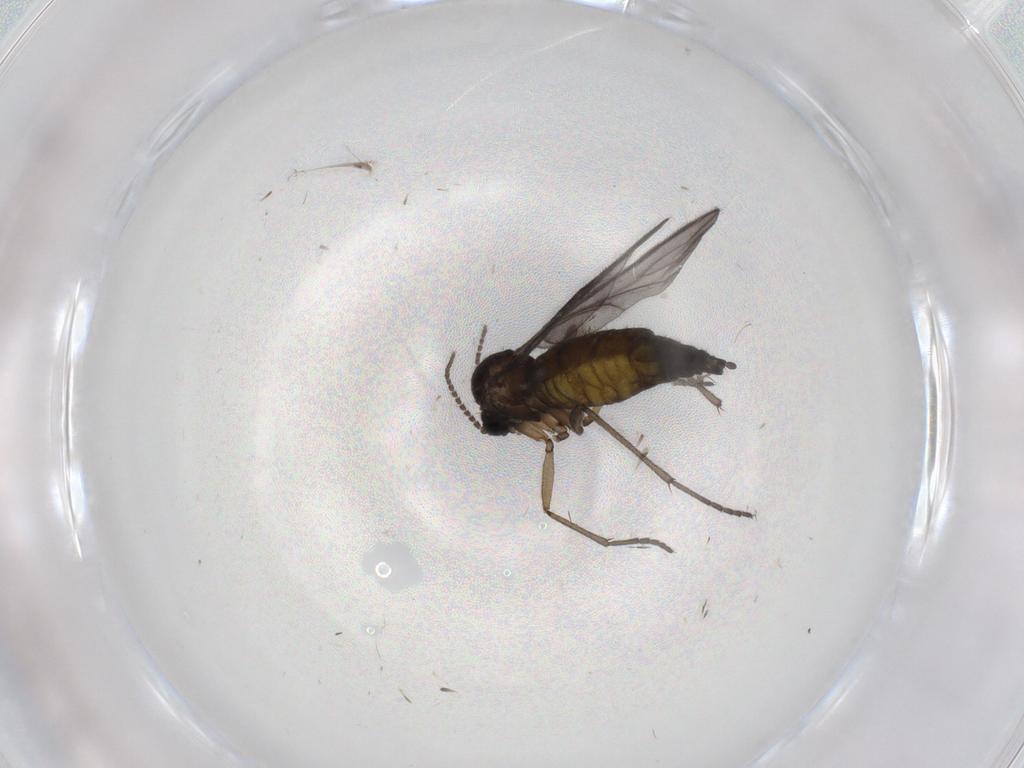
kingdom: Animalia
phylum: Arthropoda
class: Insecta
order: Diptera
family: Sciaridae
